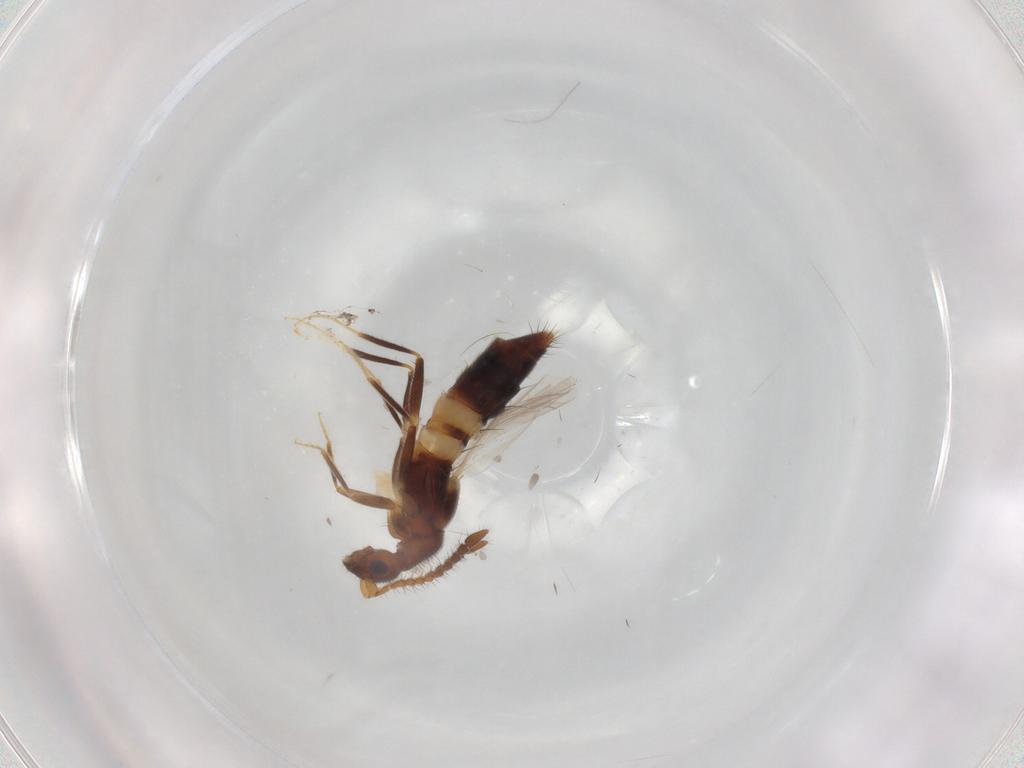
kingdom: Animalia
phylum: Arthropoda
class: Insecta
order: Coleoptera
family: Staphylinidae
